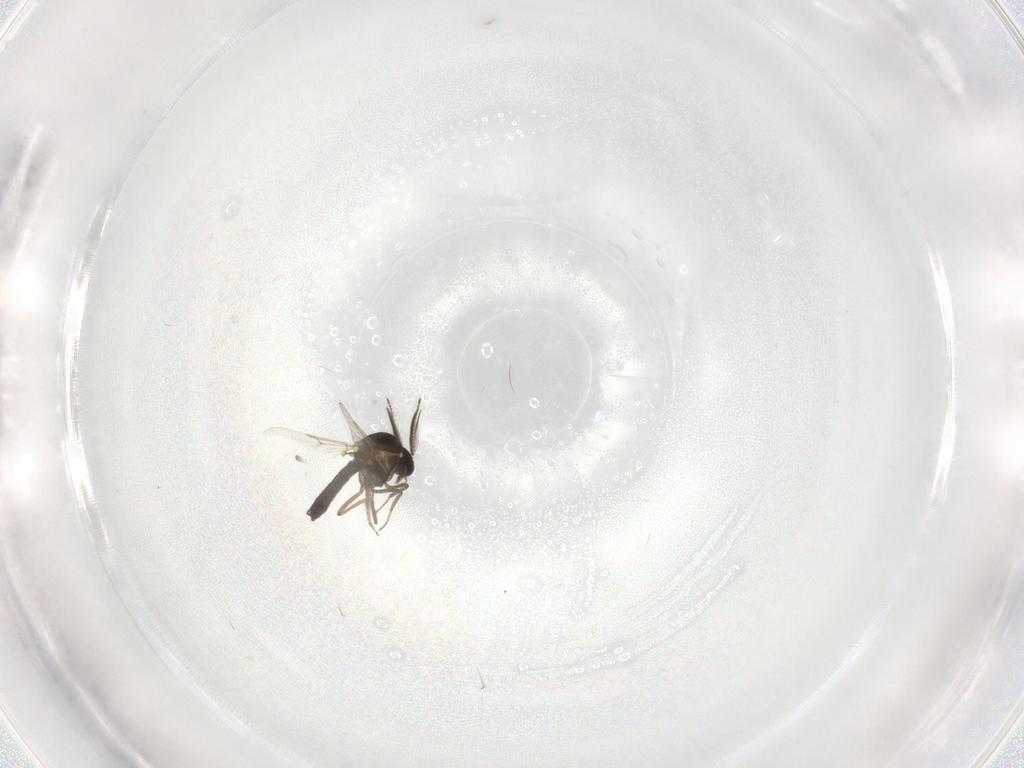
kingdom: Animalia
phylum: Arthropoda
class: Insecta
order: Diptera
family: Ceratopogonidae
